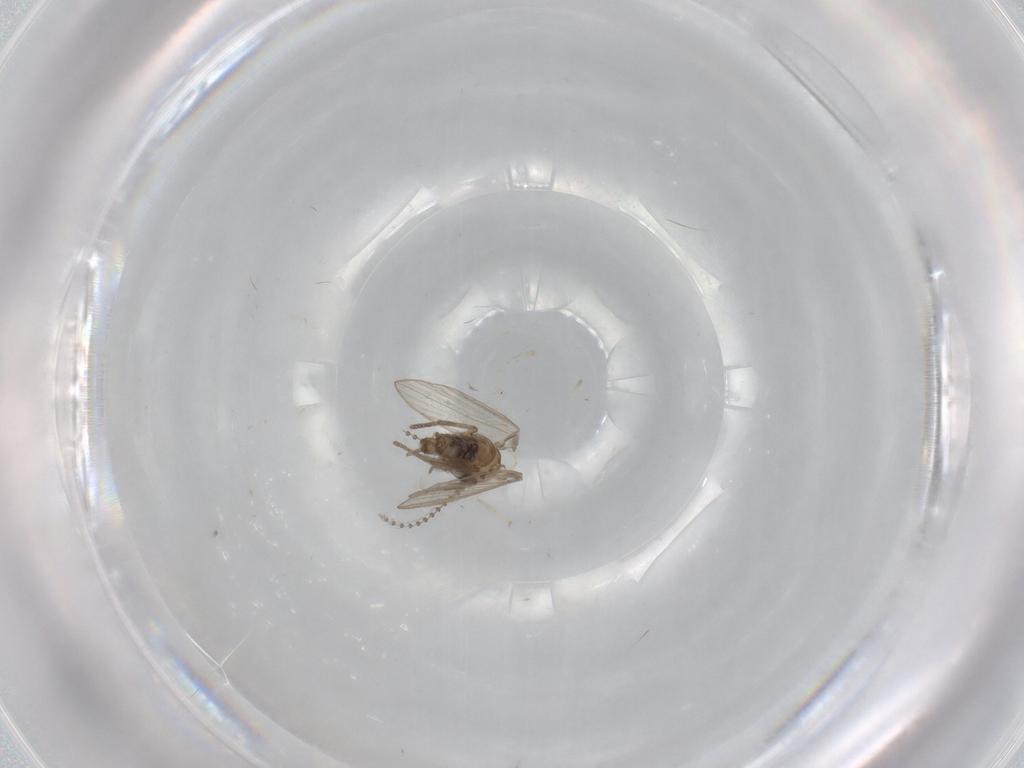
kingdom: Animalia
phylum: Arthropoda
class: Insecta
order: Diptera
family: Psychodidae
